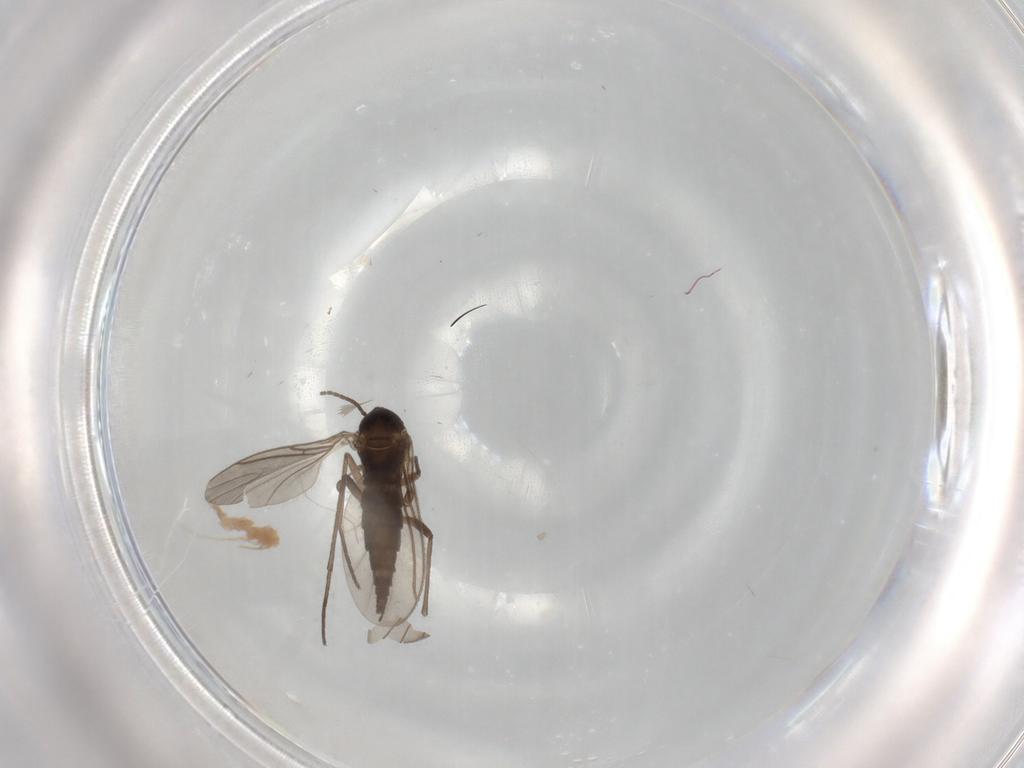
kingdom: Animalia
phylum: Arthropoda
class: Insecta
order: Diptera
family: Sciaridae
